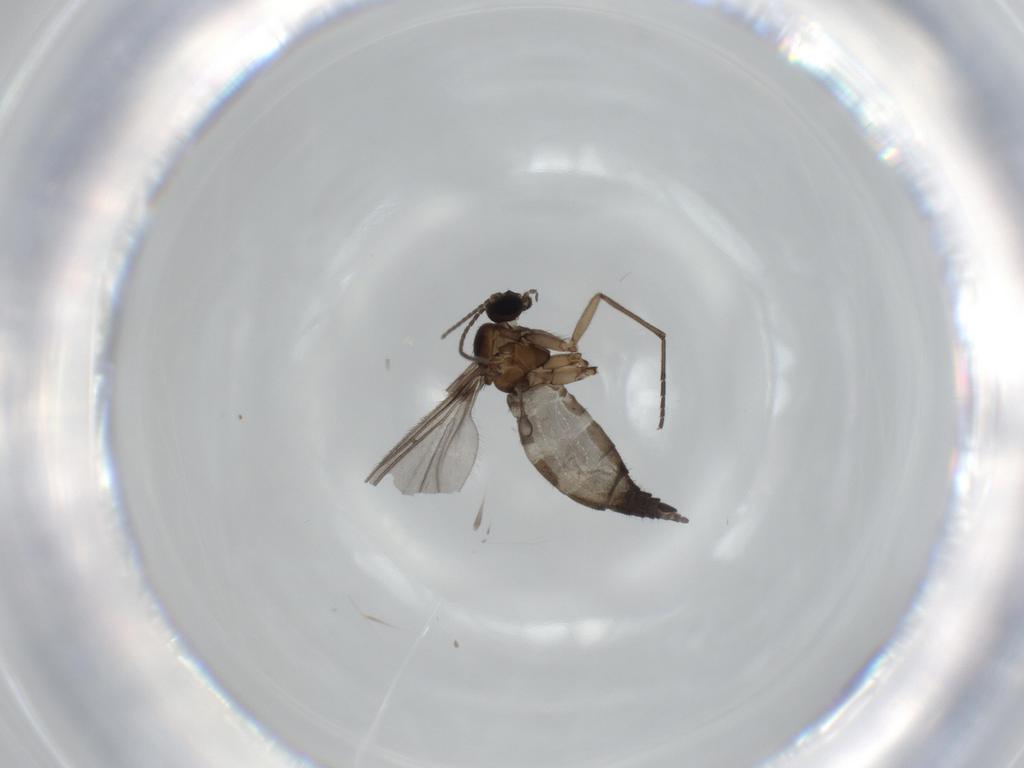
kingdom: Animalia
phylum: Arthropoda
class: Insecta
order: Diptera
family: Sciaridae
